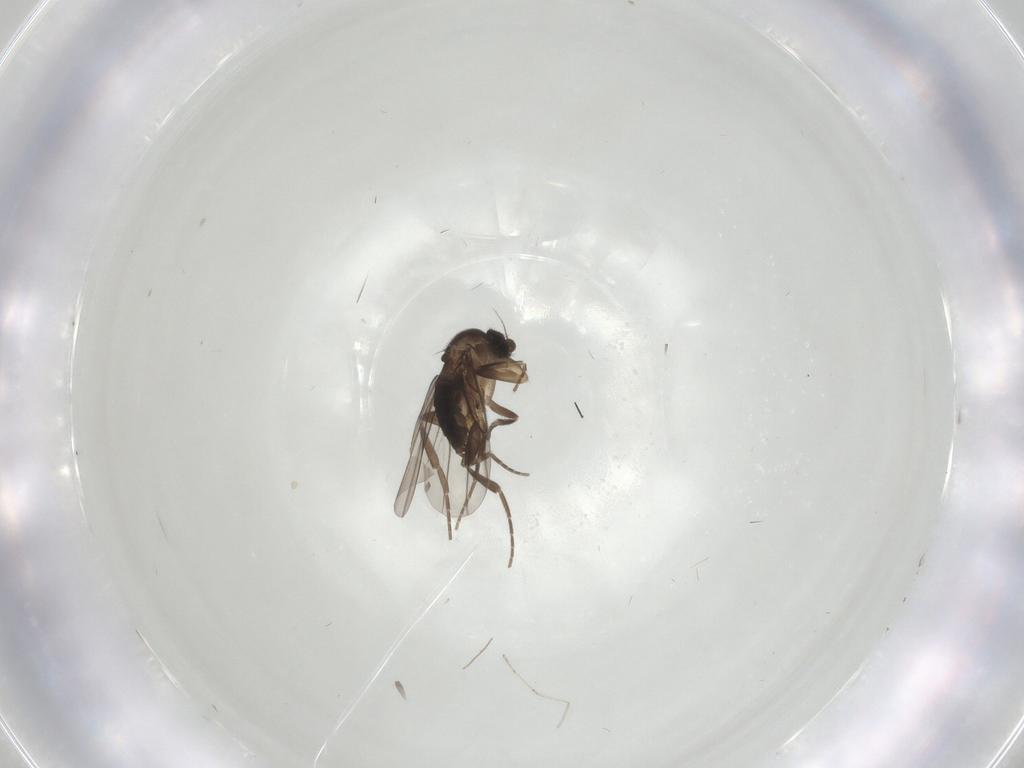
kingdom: Animalia
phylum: Arthropoda
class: Insecta
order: Diptera
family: Cecidomyiidae
